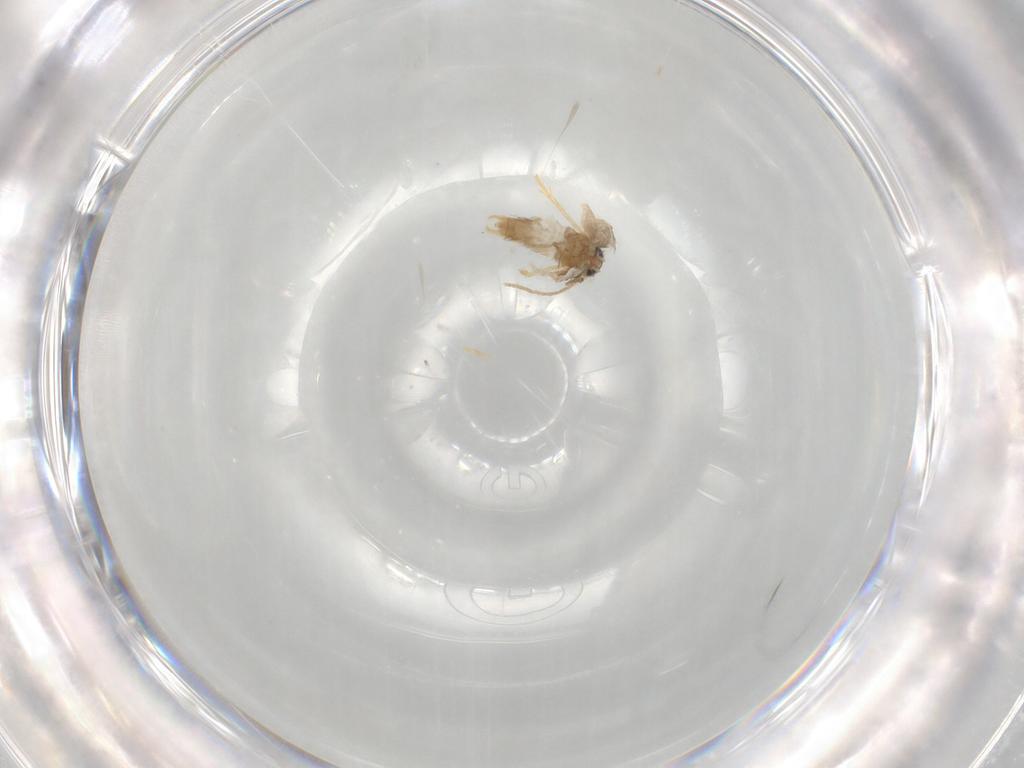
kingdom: Animalia
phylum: Arthropoda
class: Insecta
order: Lepidoptera
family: Nepticulidae
